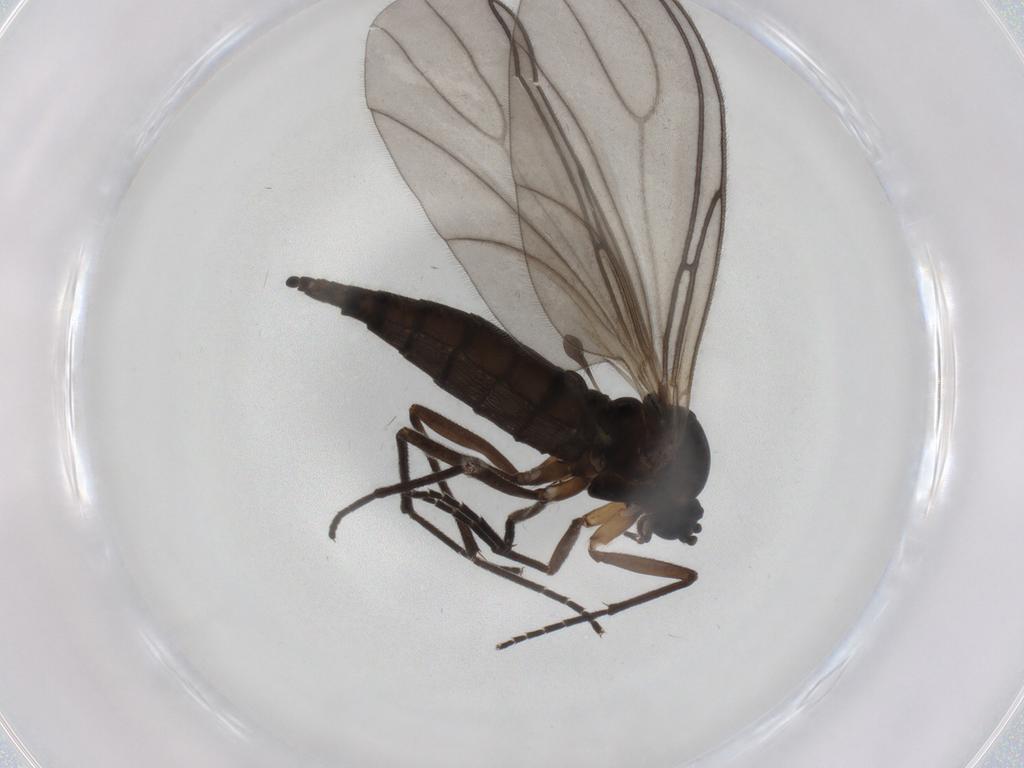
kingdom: Animalia
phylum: Arthropoda
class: Insecta
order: Diptera
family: Sciaridae
